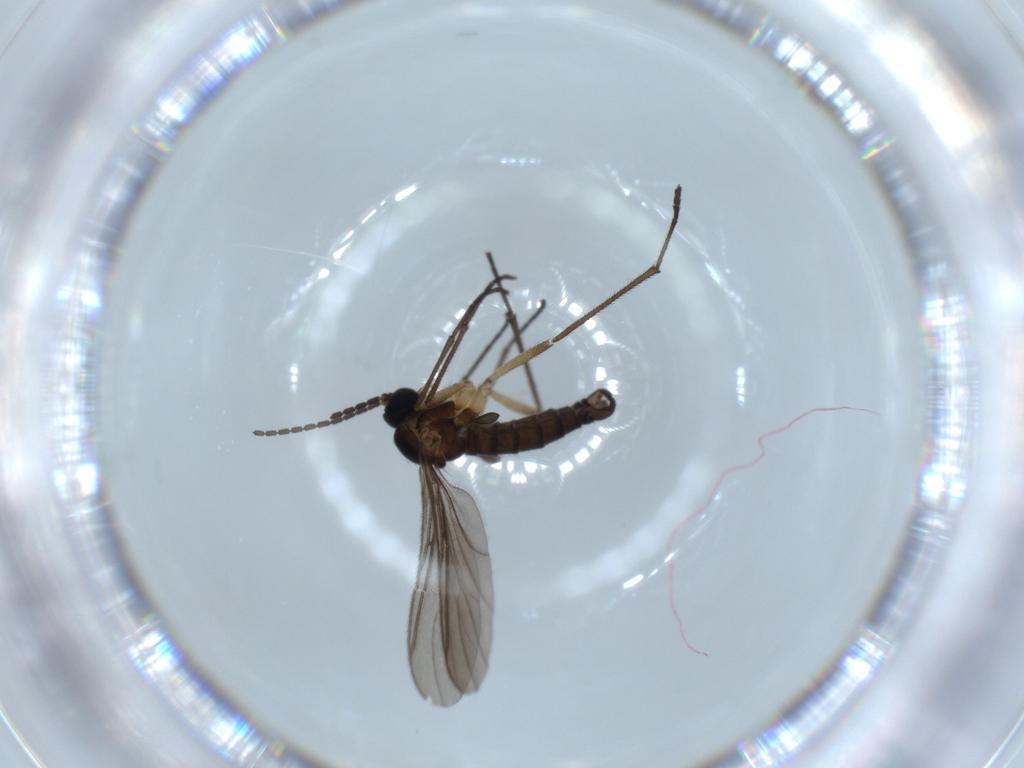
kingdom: Animalia
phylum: Arthropoda
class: Insecta
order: Diptera
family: Sciaridae
